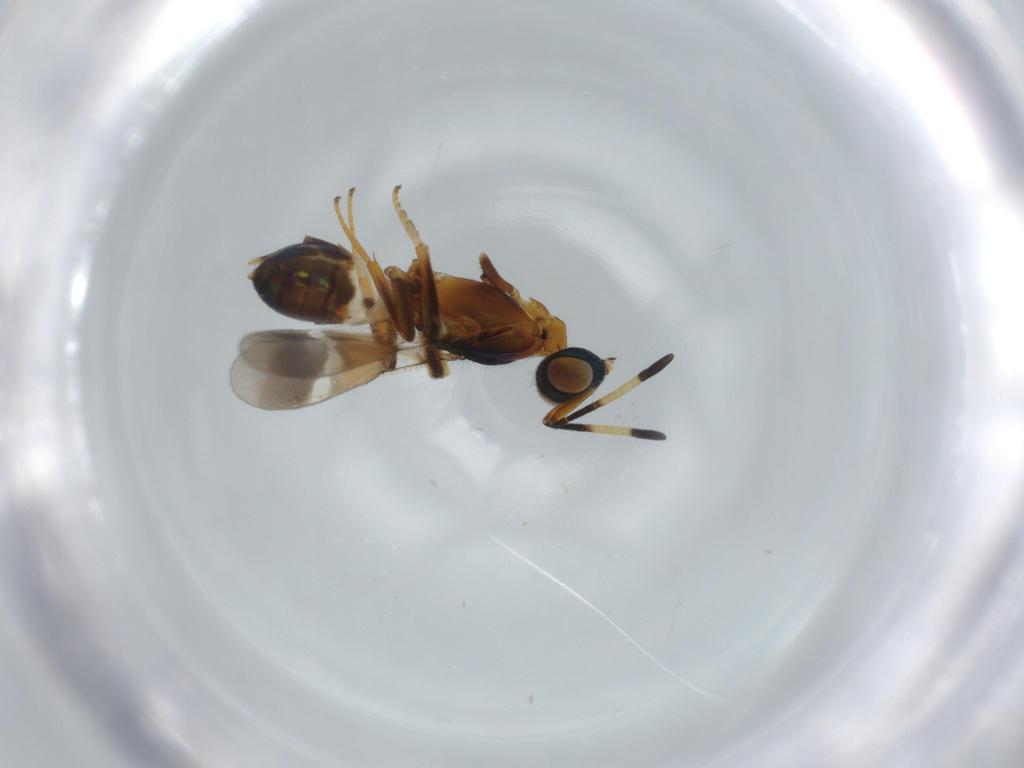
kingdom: Animalia
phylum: Arthropoda
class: Insecta
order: Hymenoptera
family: Eupelmidae
